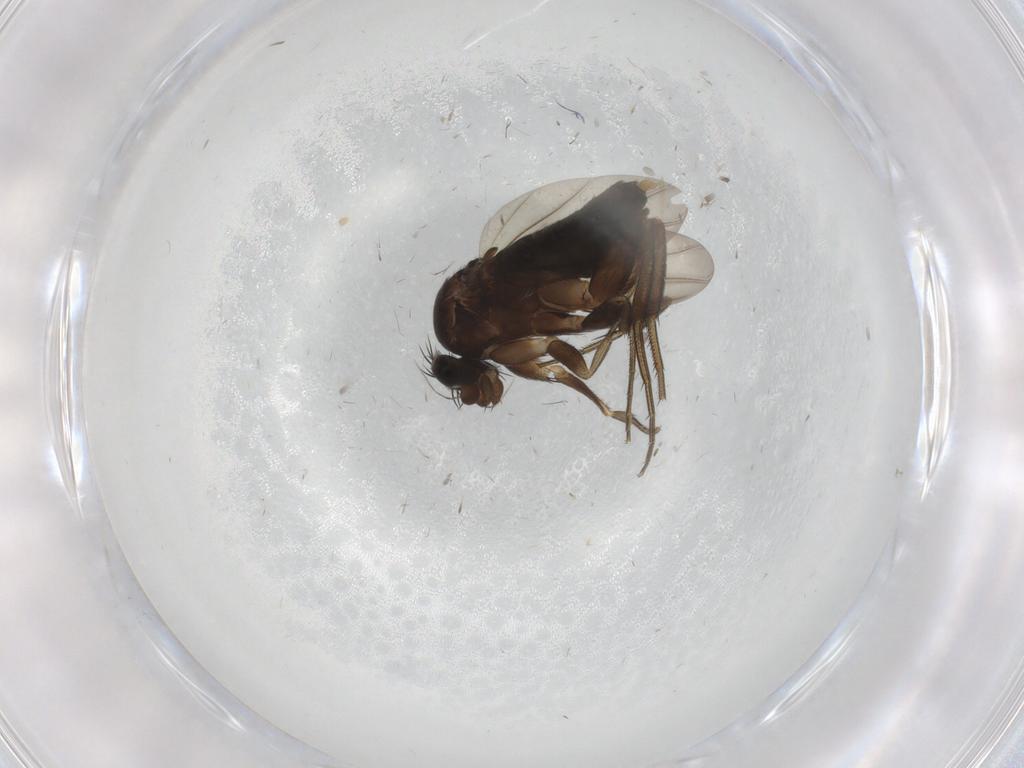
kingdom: Animalia
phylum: Arthropoda
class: Insecta
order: Diptera
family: Phoridae
